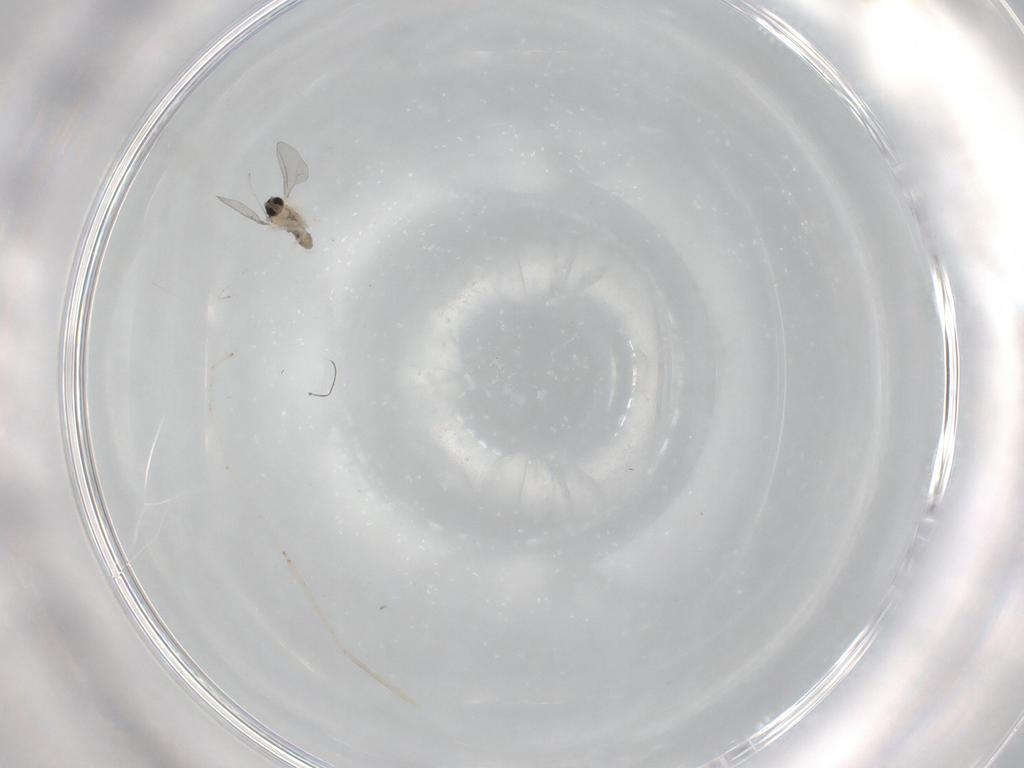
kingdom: Animalia
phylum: Arthropoda
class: Insecta
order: Diptera
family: Cecidomyiidae
